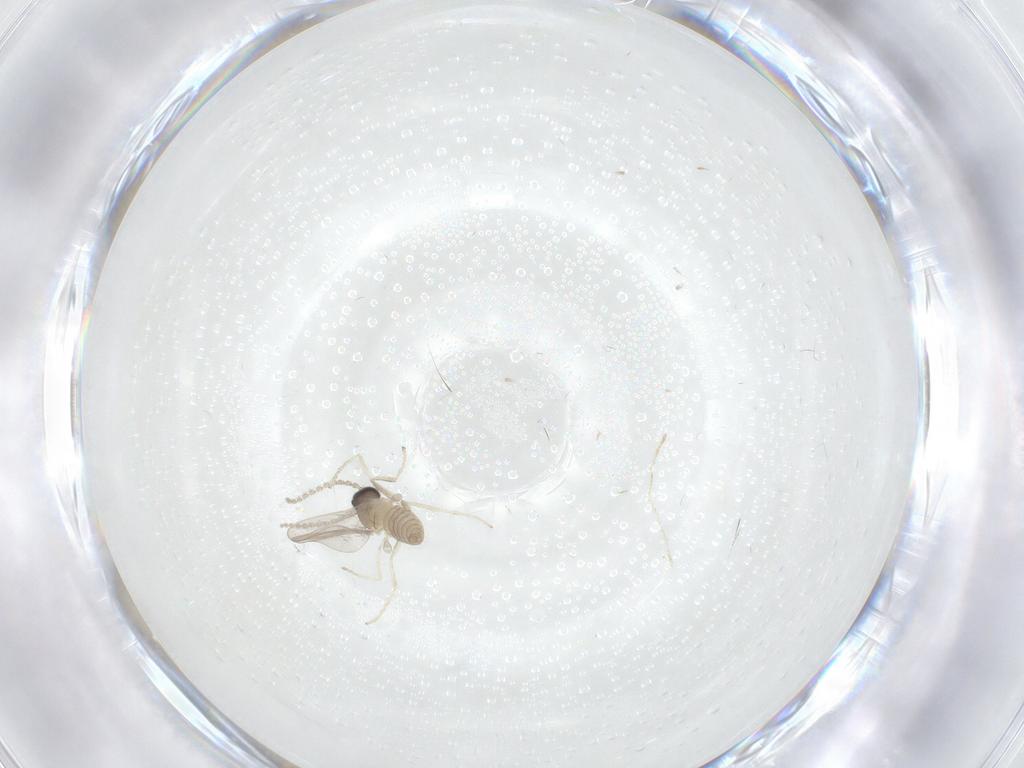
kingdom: Animalia
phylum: Arthropoda
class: Insecta
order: Diptera
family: Cecidomyiidae
